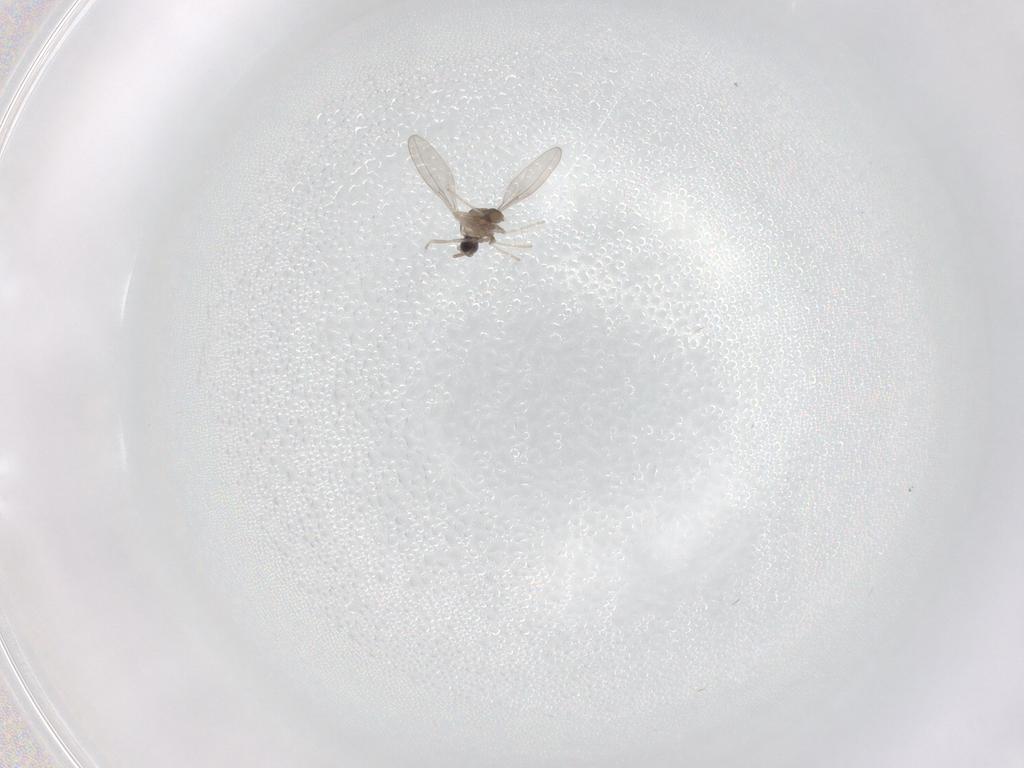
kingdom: Animalia
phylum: Arthropoda
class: Insecta
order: Diptera
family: Cecidomyiidae
